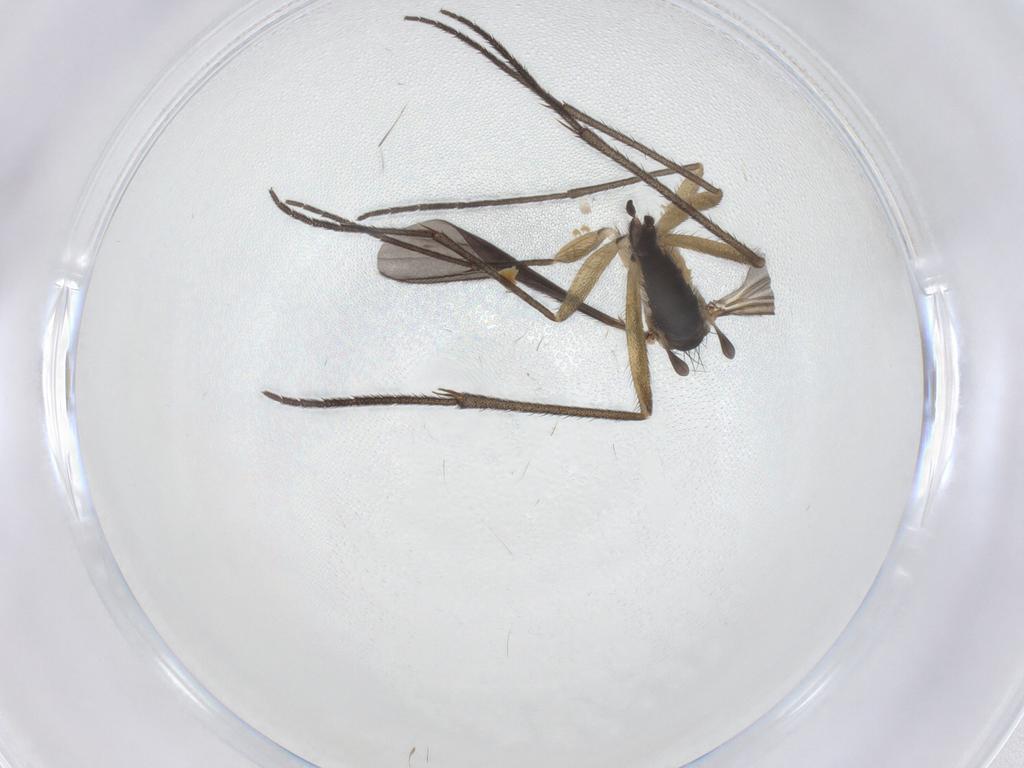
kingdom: Animalia
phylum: Arthropoda
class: Insecta
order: Diptera
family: Sciaridae
